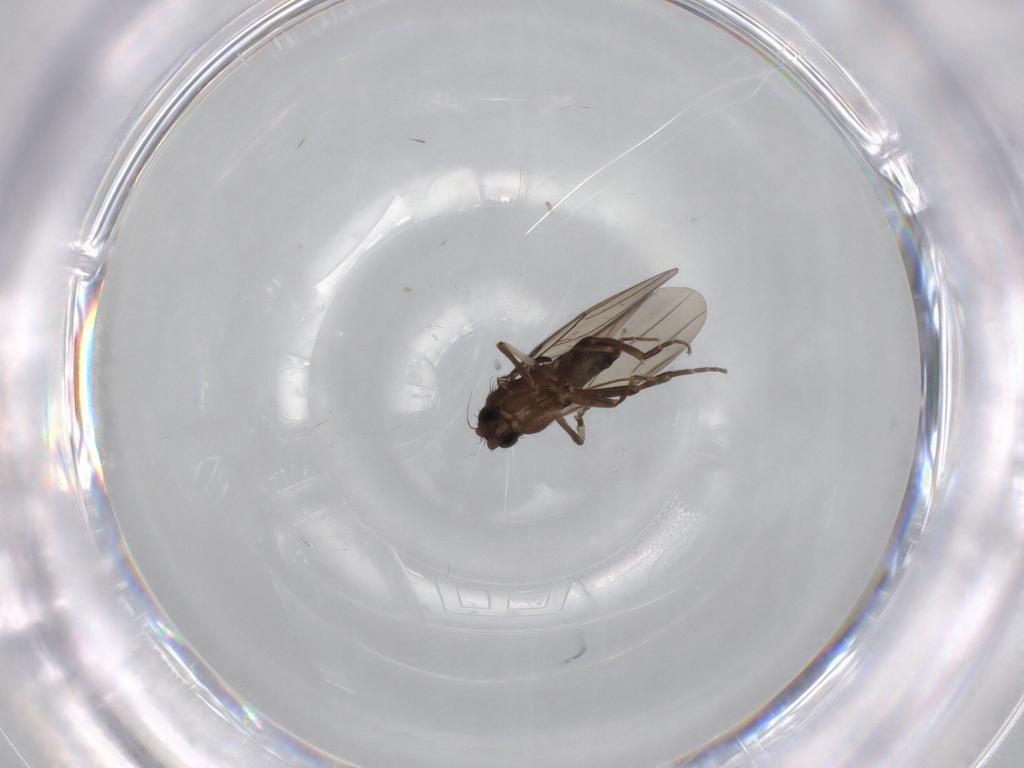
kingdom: Animalia
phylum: Arthropoda
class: Insecta
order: Diptera
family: Phoridae
